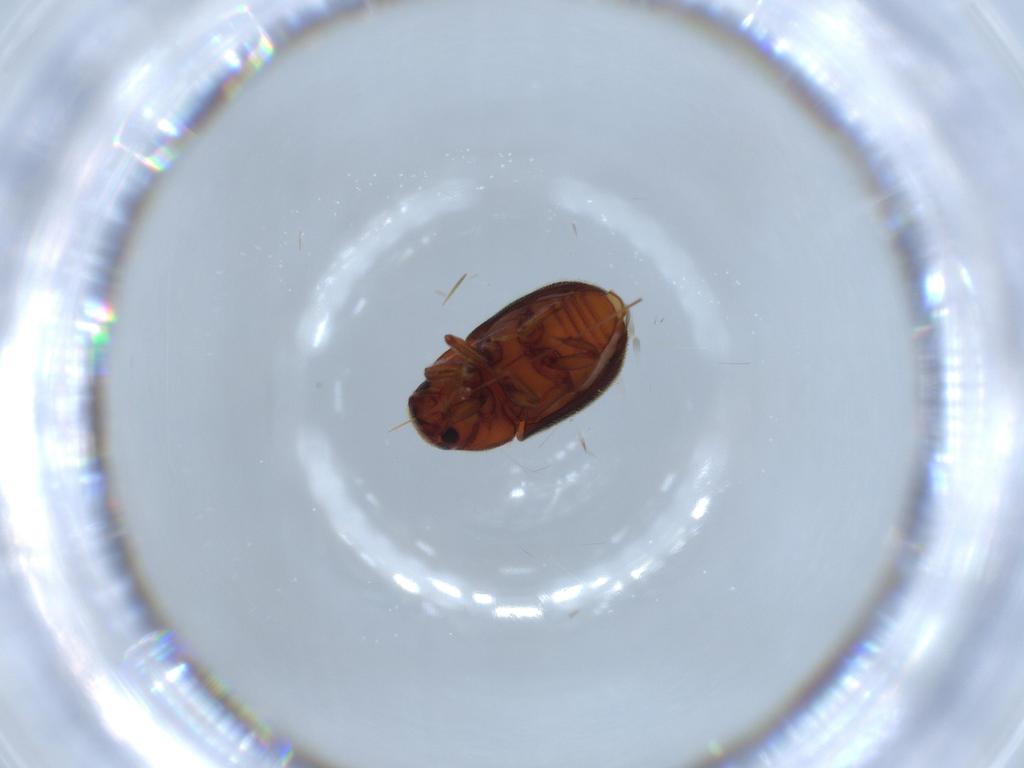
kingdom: Animalia
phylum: Arthropoda
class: Insecta
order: Coleoptera
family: Curculionidae
